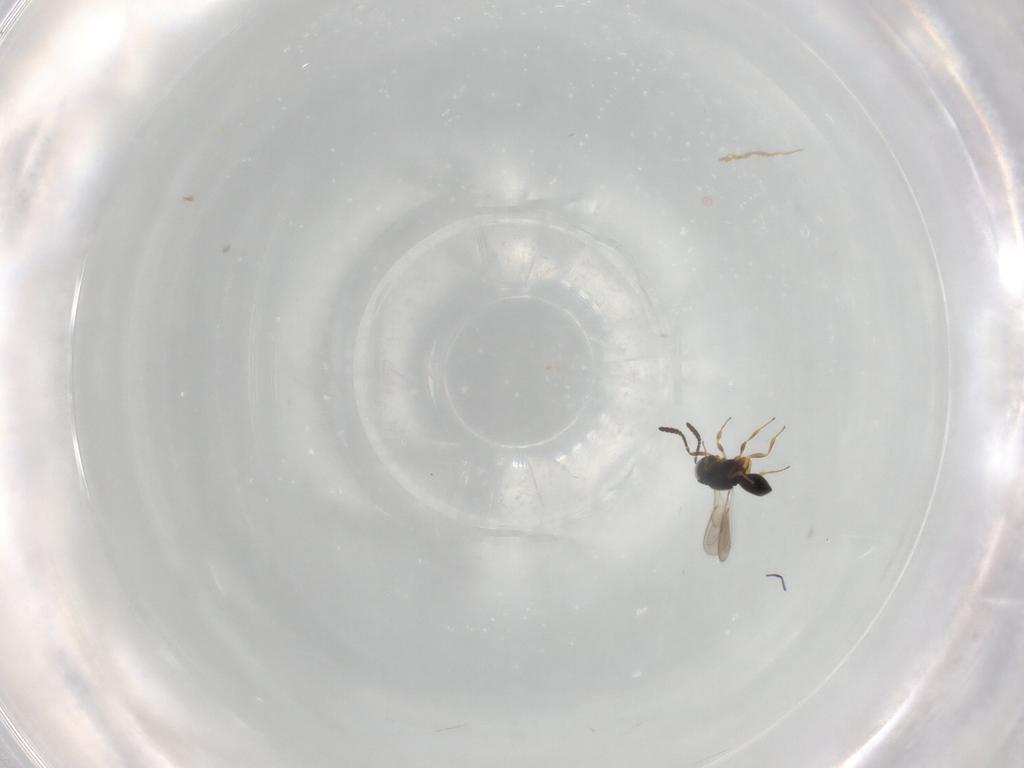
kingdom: Animalia
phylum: Arthropoda
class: Insecta
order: Hymenoptera
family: Scelionidae
